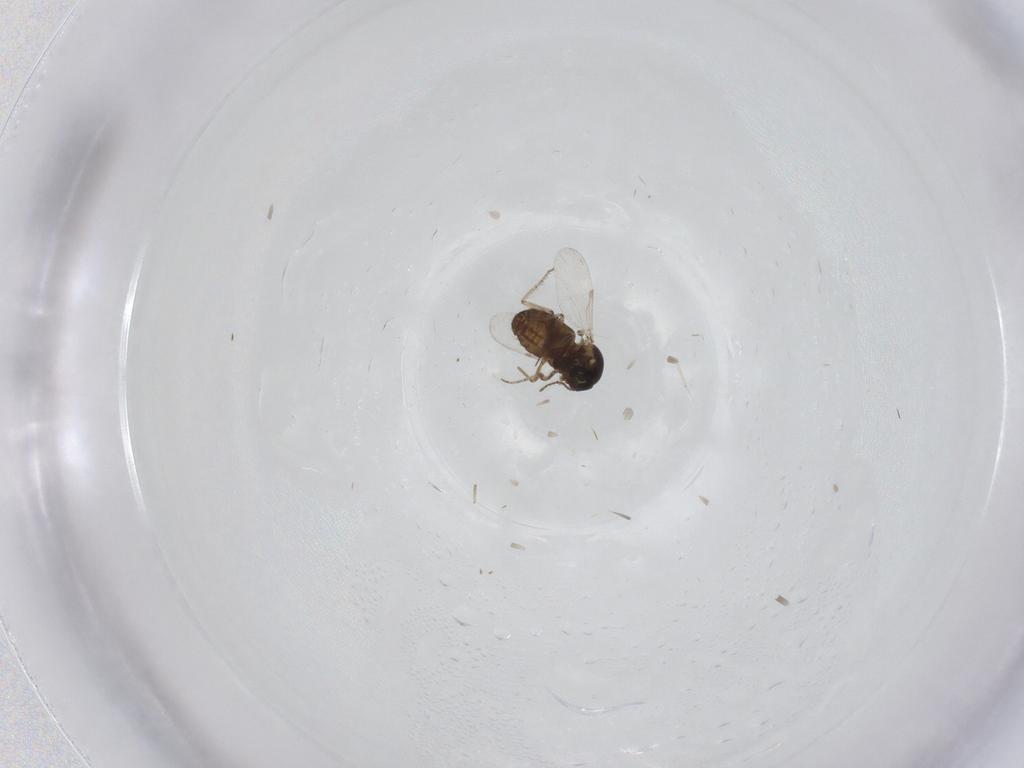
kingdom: Animalia
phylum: Arthropoda
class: Insecta
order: Diptera
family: Ceratopogonidae
